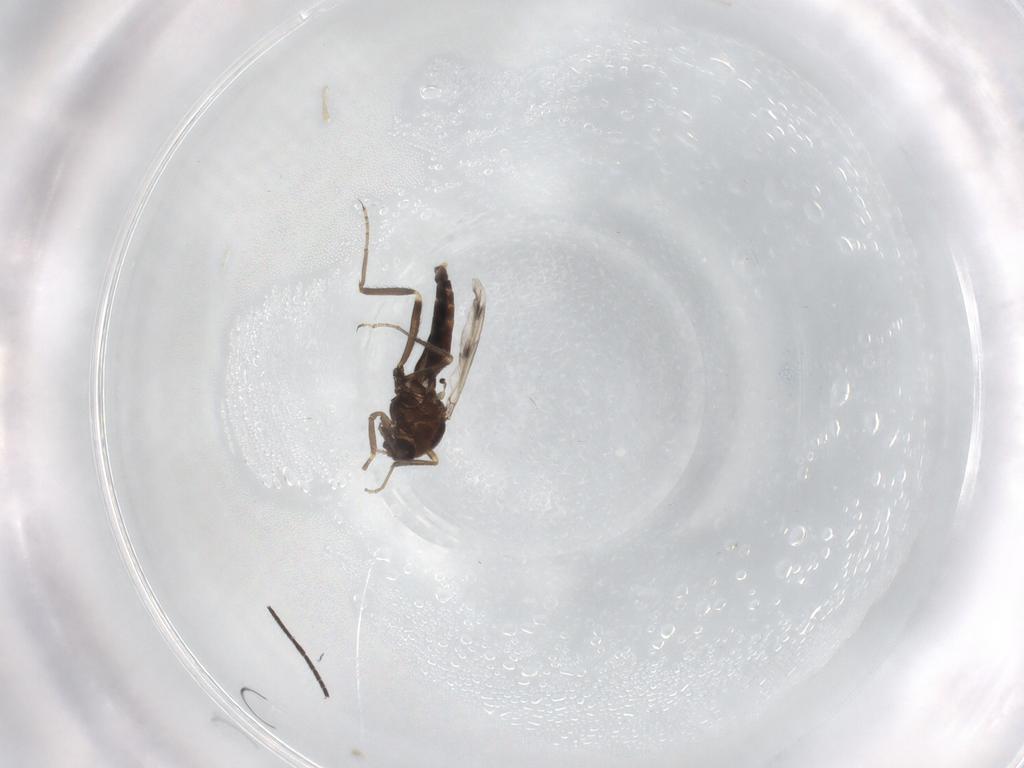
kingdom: Animalia
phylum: Arthropoda
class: Insecta
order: Diptera
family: Ceratopogonidae
